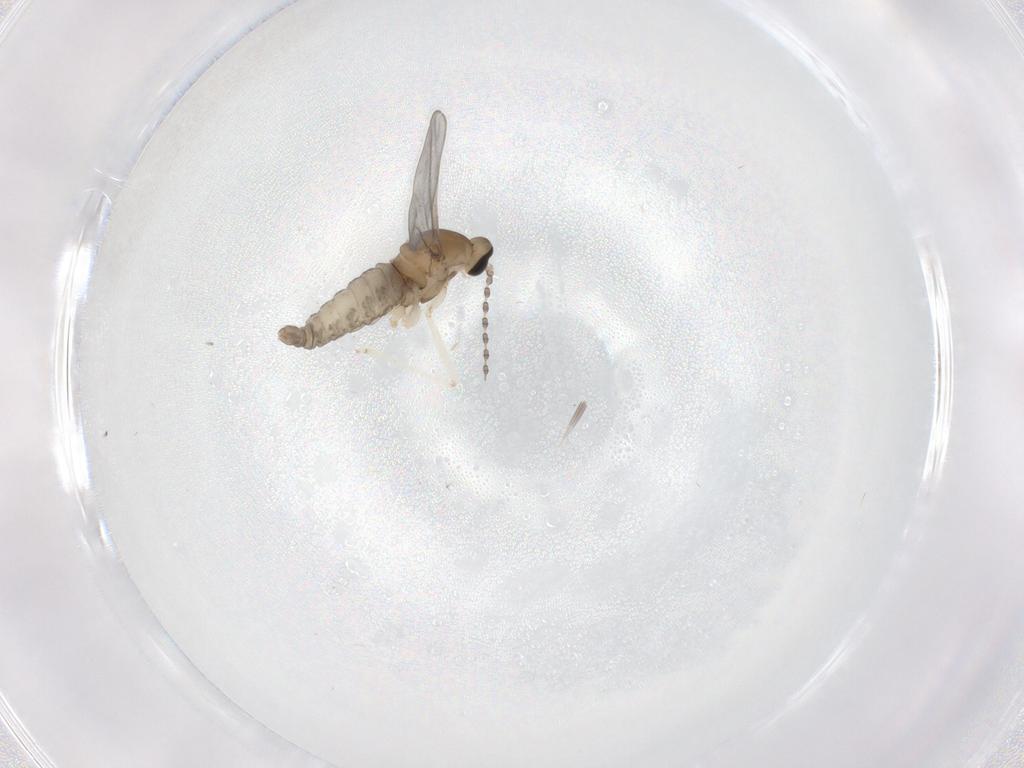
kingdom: Animalia
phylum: Arthropoda
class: Insecta
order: Diptera
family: Cecidomyiidae
